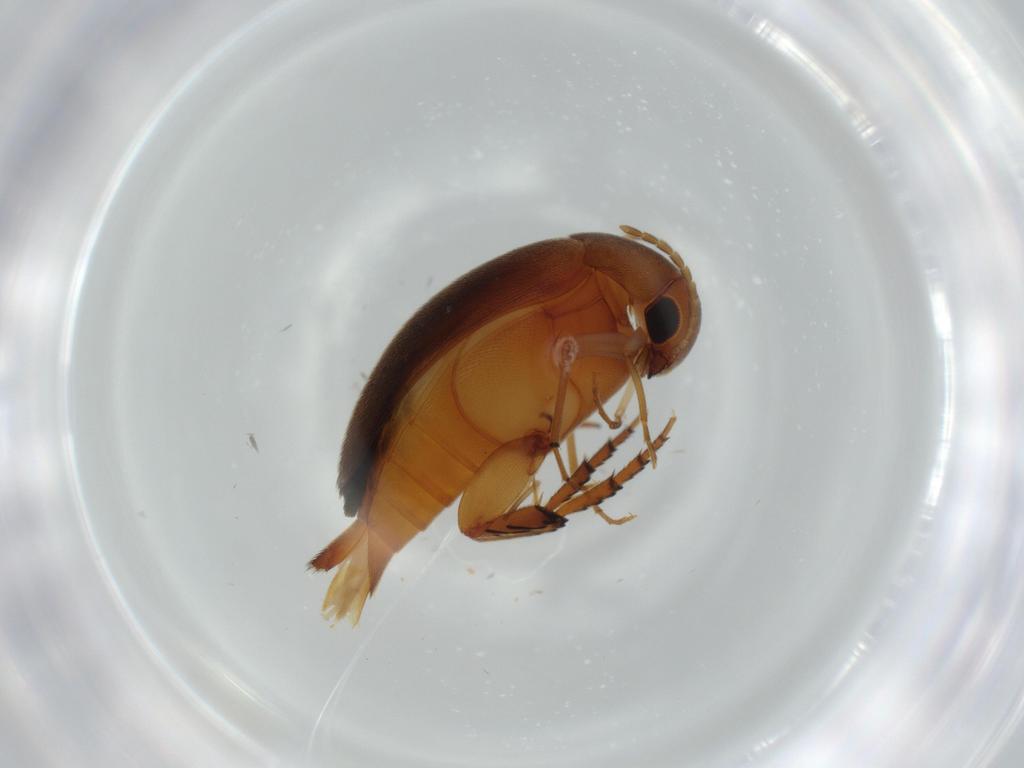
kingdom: Animalia
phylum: Arthropoda
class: Insecta
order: Coleoptera
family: Mordellidae
